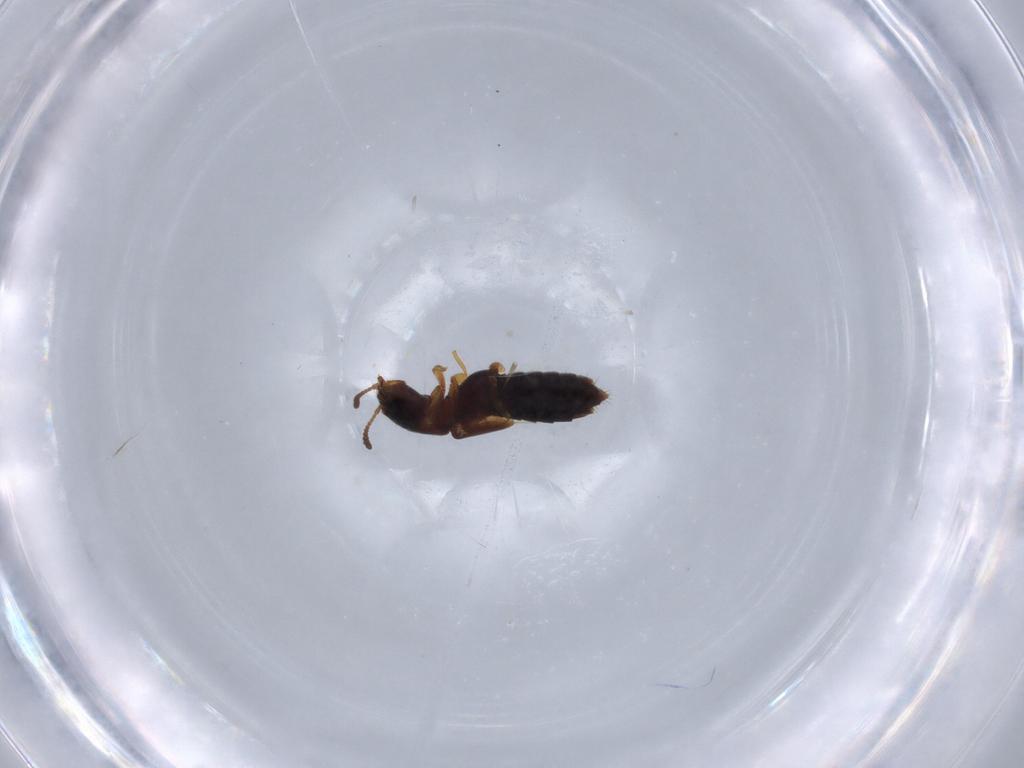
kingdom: Animalia
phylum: Arthropoda
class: Insecta
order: Coleoptera
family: Staphylinidae
